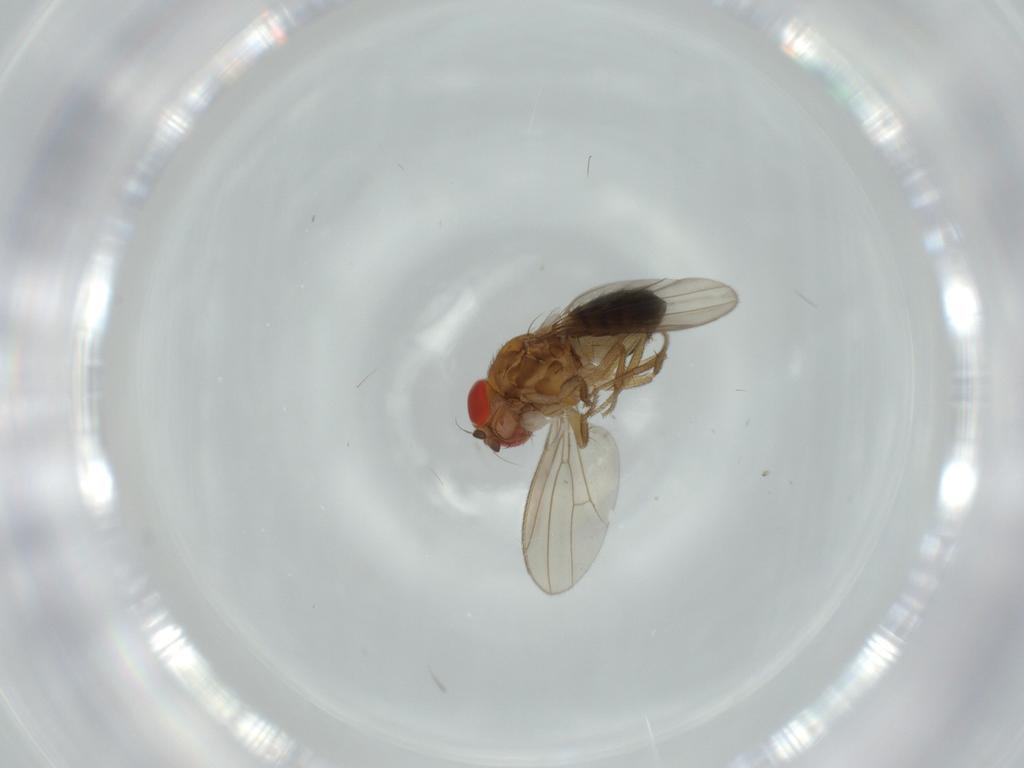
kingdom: Animalia
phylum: Arthropoda
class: Insecta
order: Diptera
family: Drosophilidae
